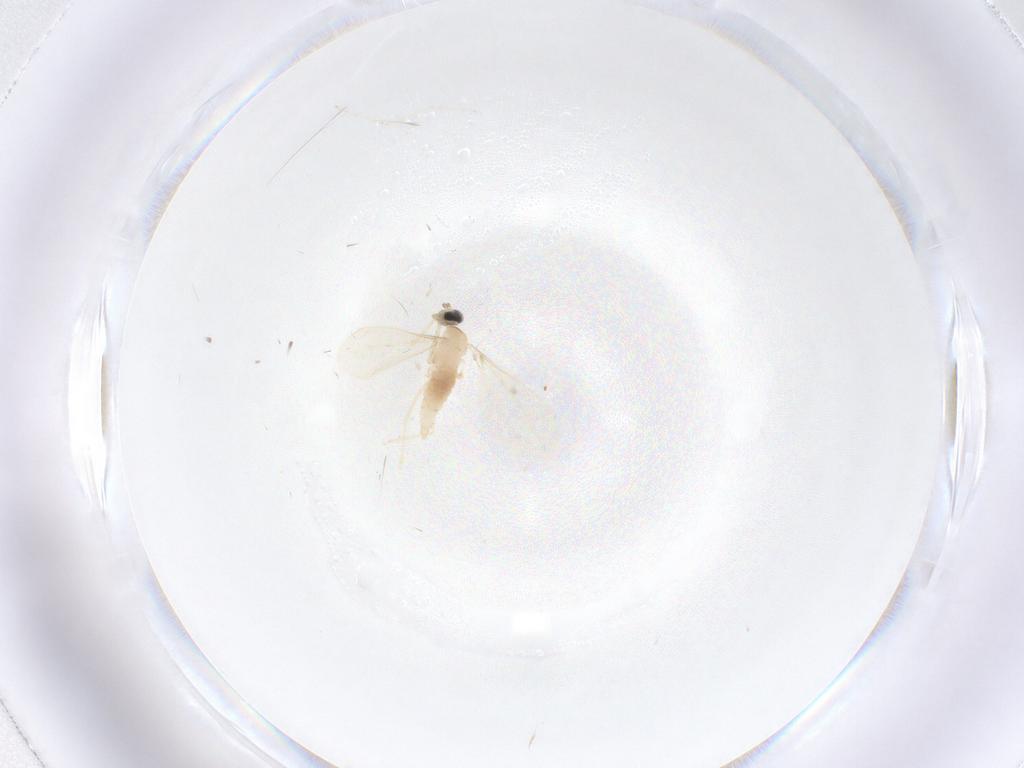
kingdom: Animalia
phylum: Arthropoda
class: Insecta
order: Diptera
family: Cecidomyiidae
